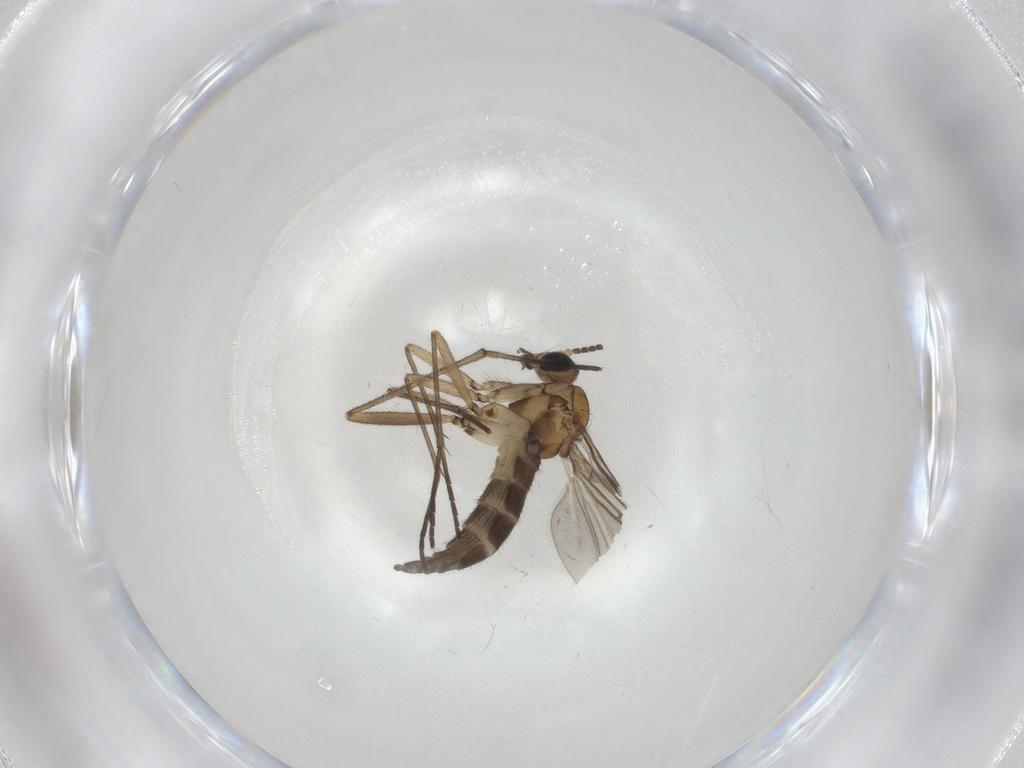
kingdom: Animalia
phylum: Arthropoda
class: Insecta
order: Diptera
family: Sciaridae
